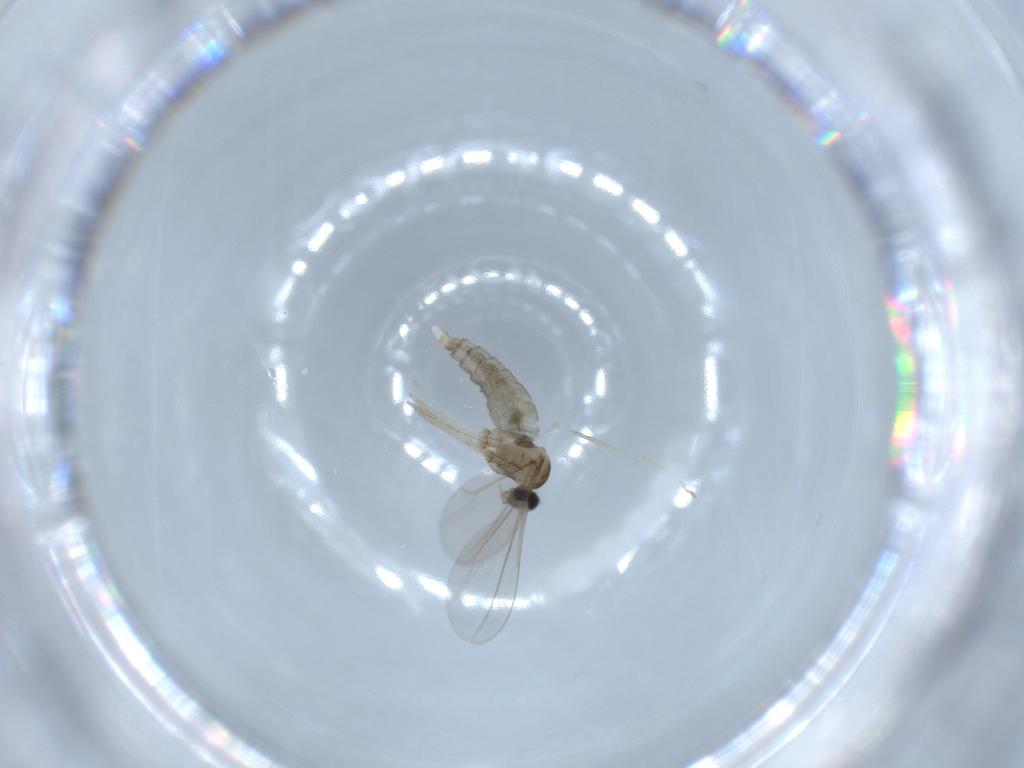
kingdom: Animalia
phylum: Arthropoda
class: Insecta
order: Diptera
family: Cecidomyiidae
